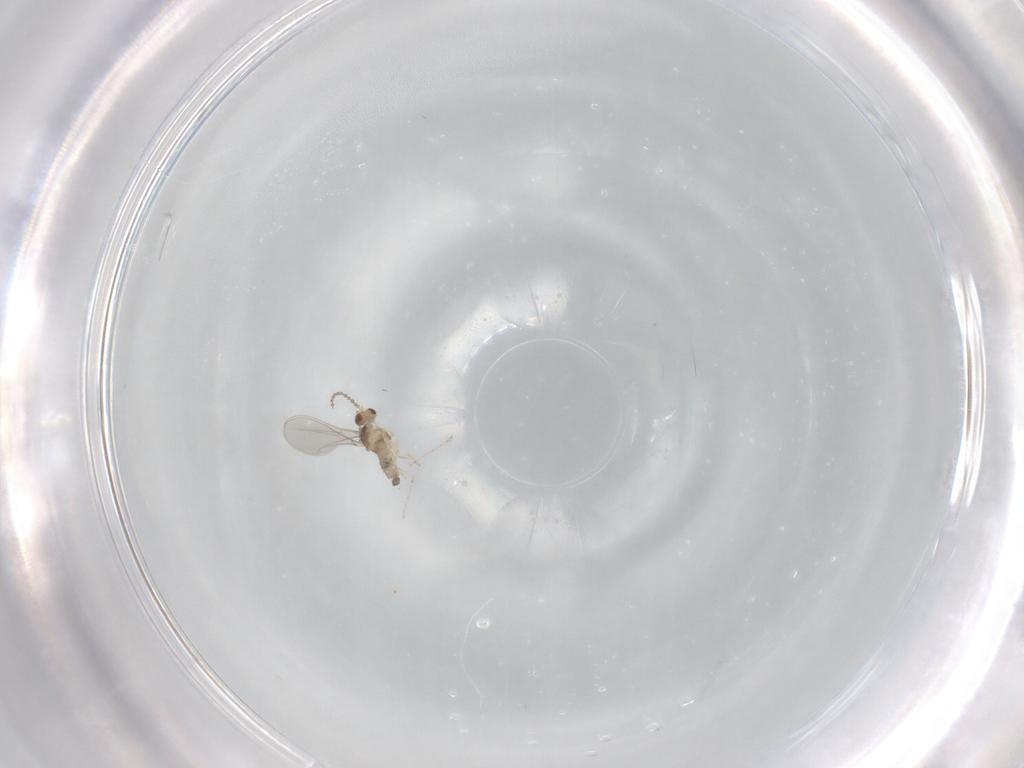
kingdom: Animalia
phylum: Arthropoda
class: Insecta
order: Diptera
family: Cecidomyiidae
